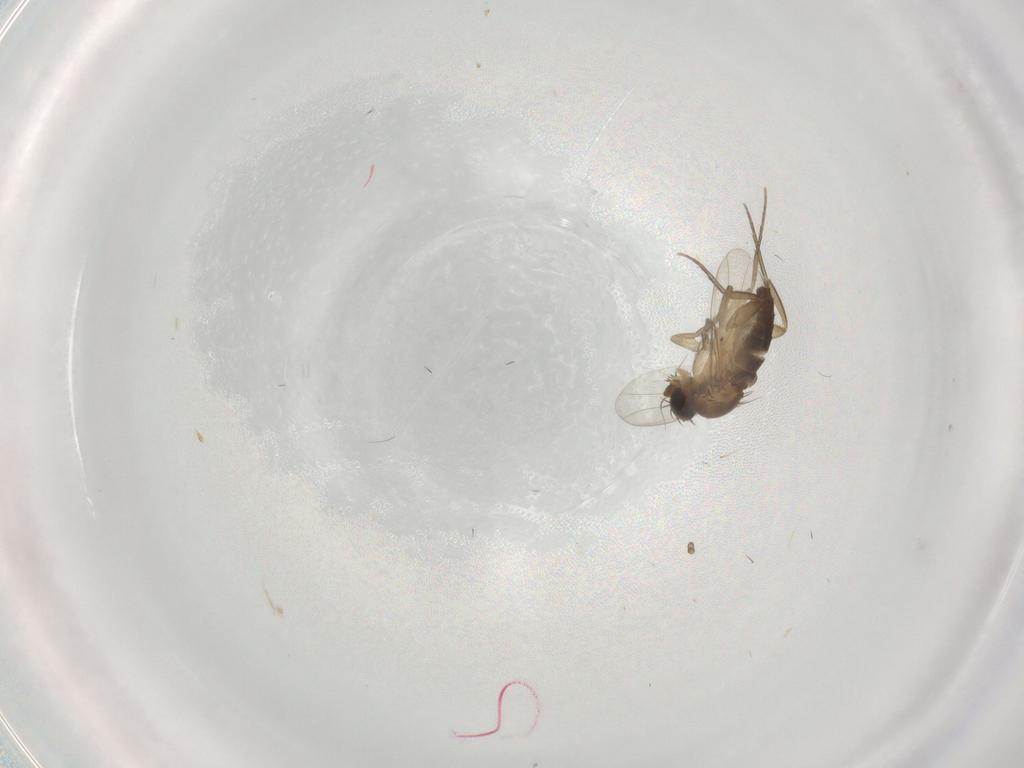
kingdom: Animalia
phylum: Arthropoda
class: Insecta
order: Diptera
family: Phoridae
